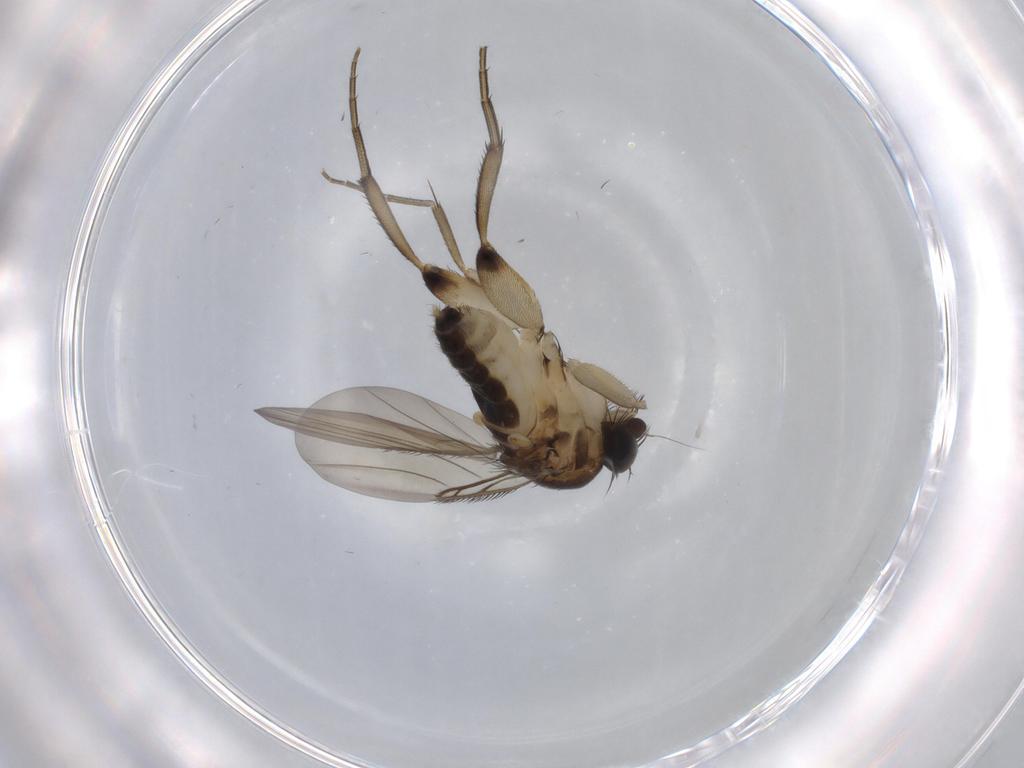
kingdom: Animalia
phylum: Arthropoda
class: Insecta
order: Diptera
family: Phoridae
